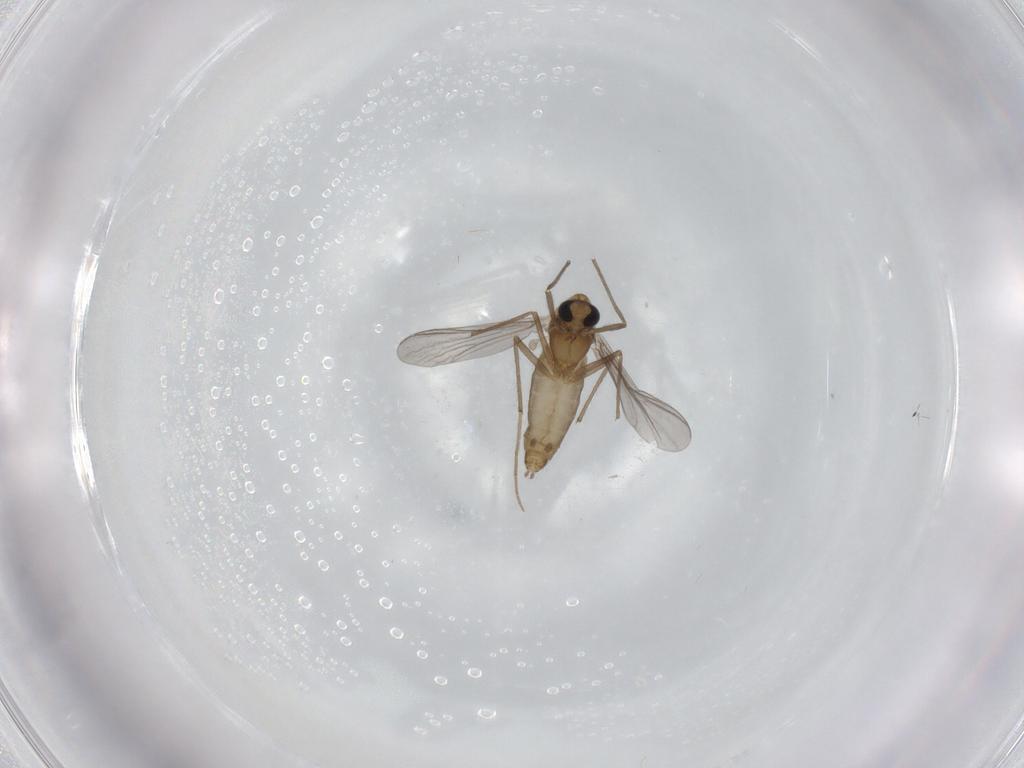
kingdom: Animalia
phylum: Arthropoda
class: Insecta
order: Diptera
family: Chironomidae
